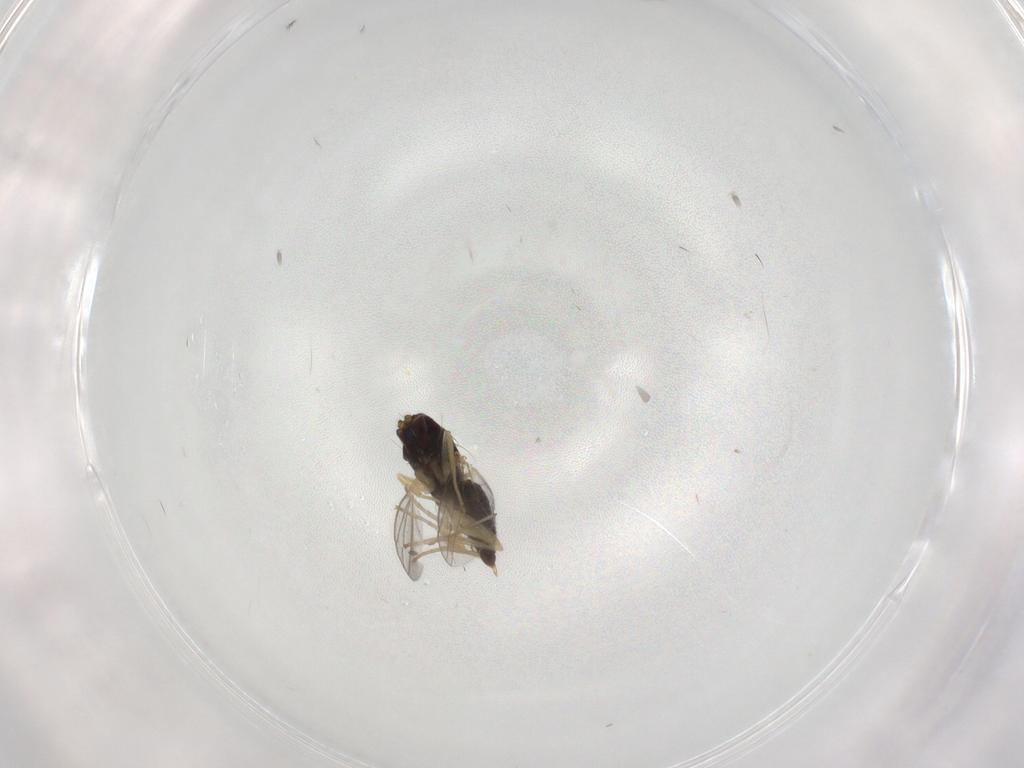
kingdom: Animalia
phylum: Arthropoda
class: Insecta
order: Diptera
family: Dolichopodidae
